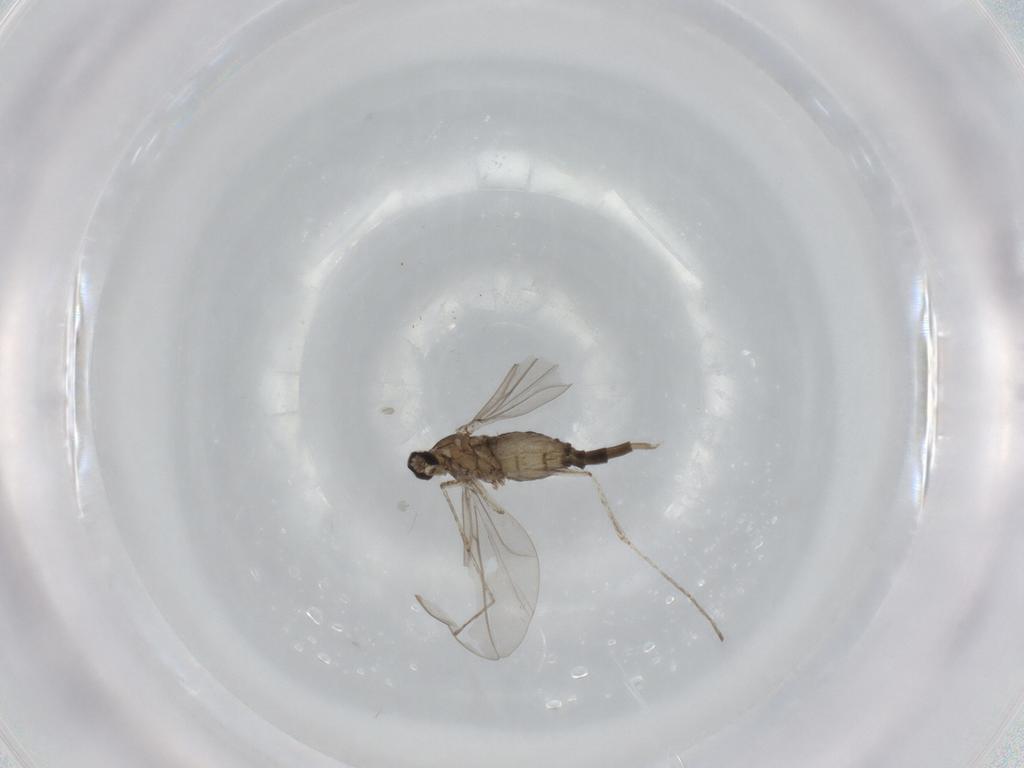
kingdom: Animalia
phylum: Arthropoda
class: Insecta
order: Diptera
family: Cecidomyiidae
